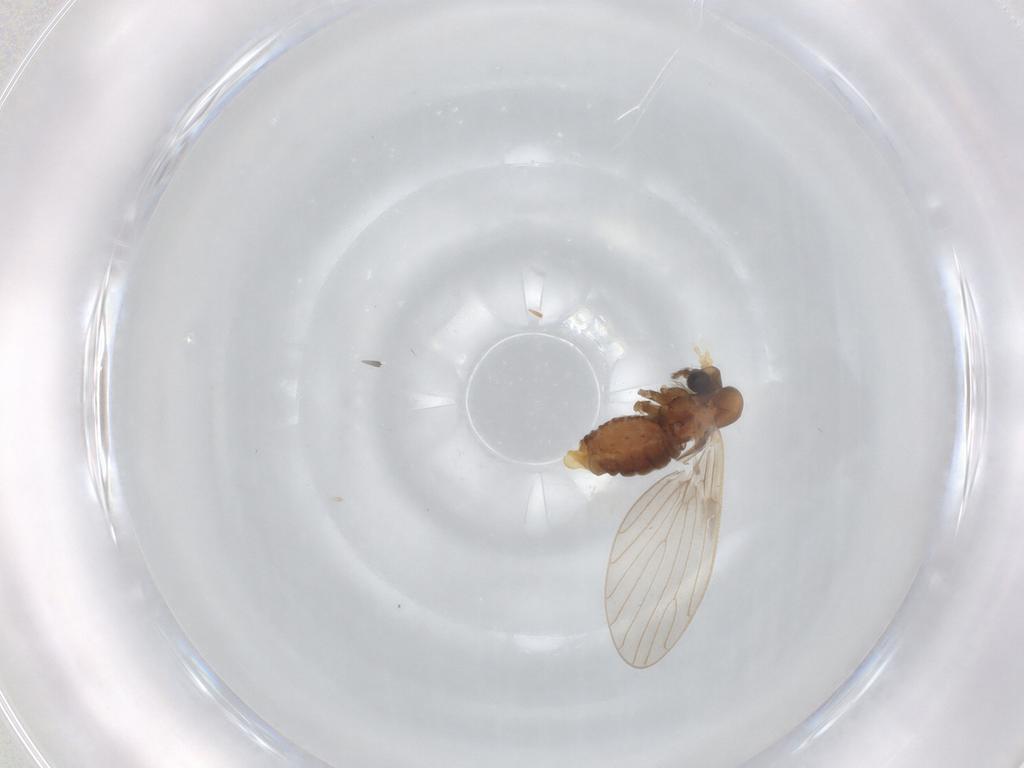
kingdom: Animalia
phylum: Arthropoda
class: Insecta
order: Diptera
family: Psychodidae
